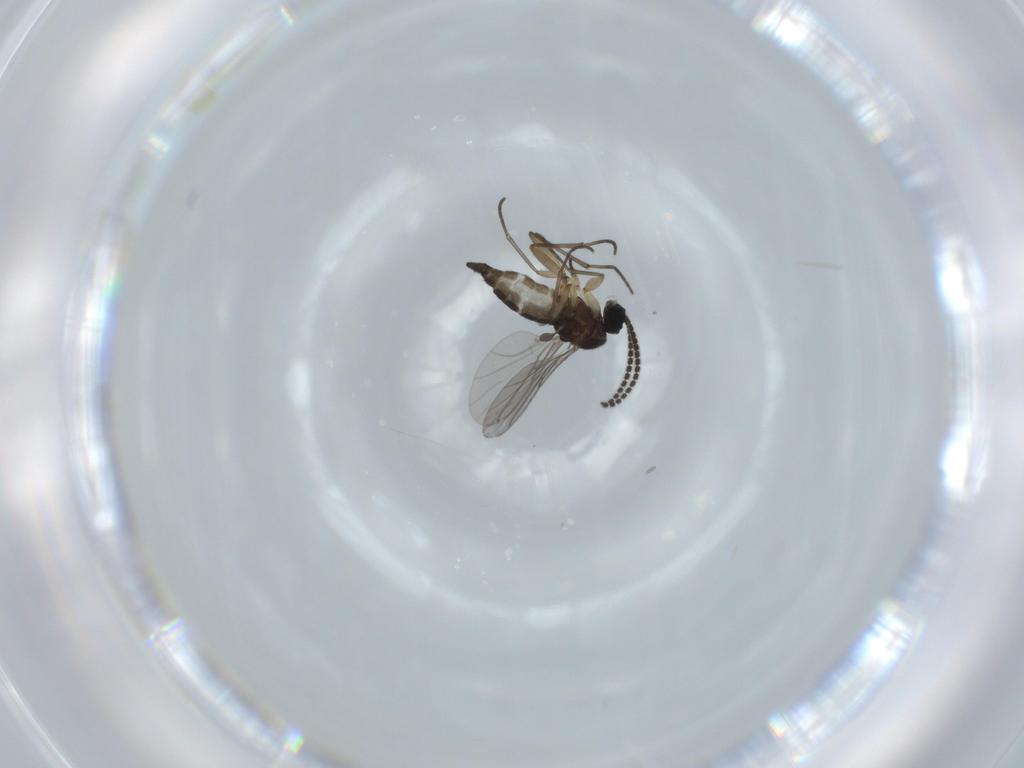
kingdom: Animalia
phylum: Arthropoda
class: Insecta
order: Diptera
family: Sciaridae
